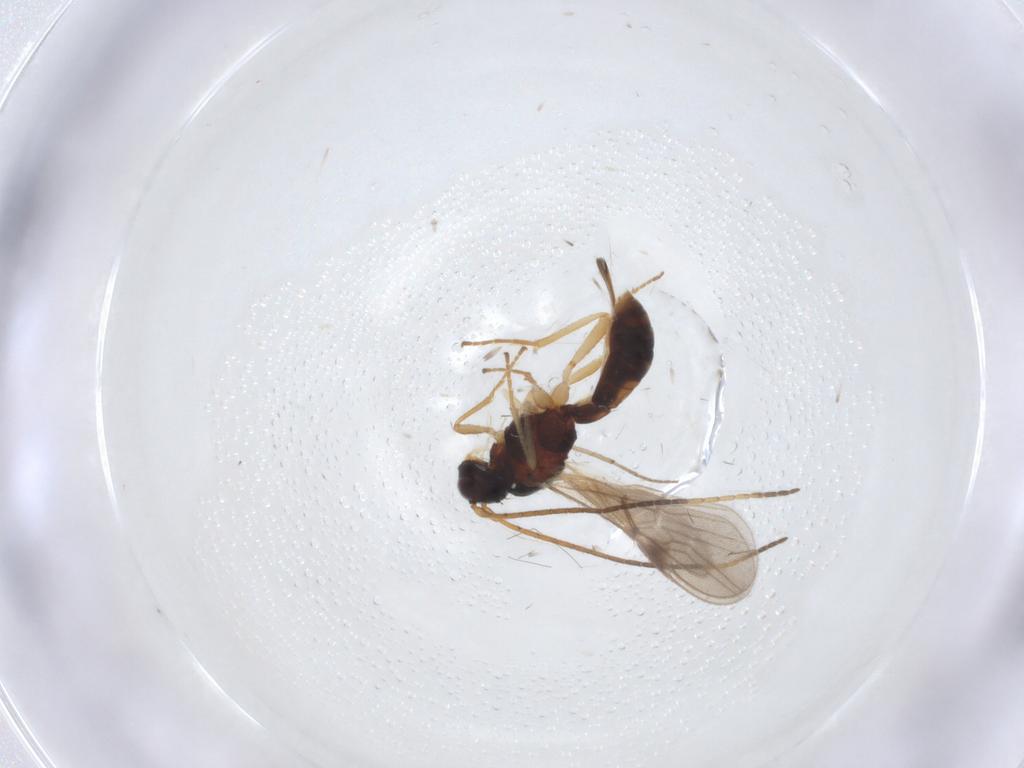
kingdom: Animalia
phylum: Arthropoda
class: Insecta
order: Hymenoptera
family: Braconidae
